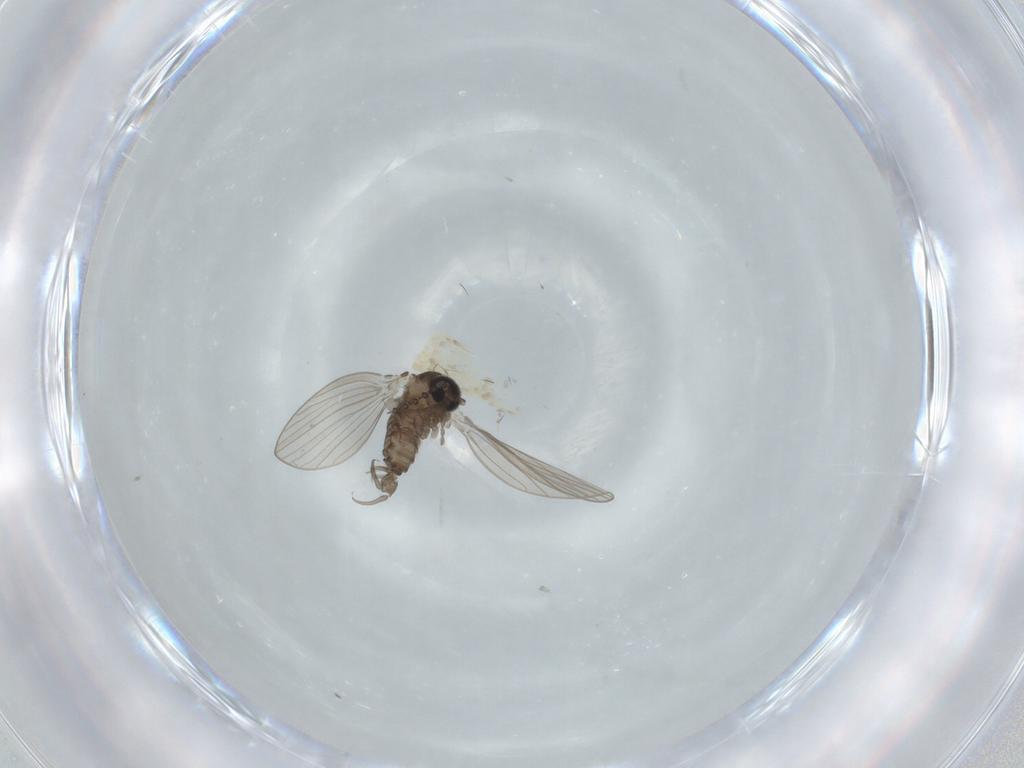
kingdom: Animalia
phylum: Arthropoda
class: Insecta
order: Diptera
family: Psychodidae
